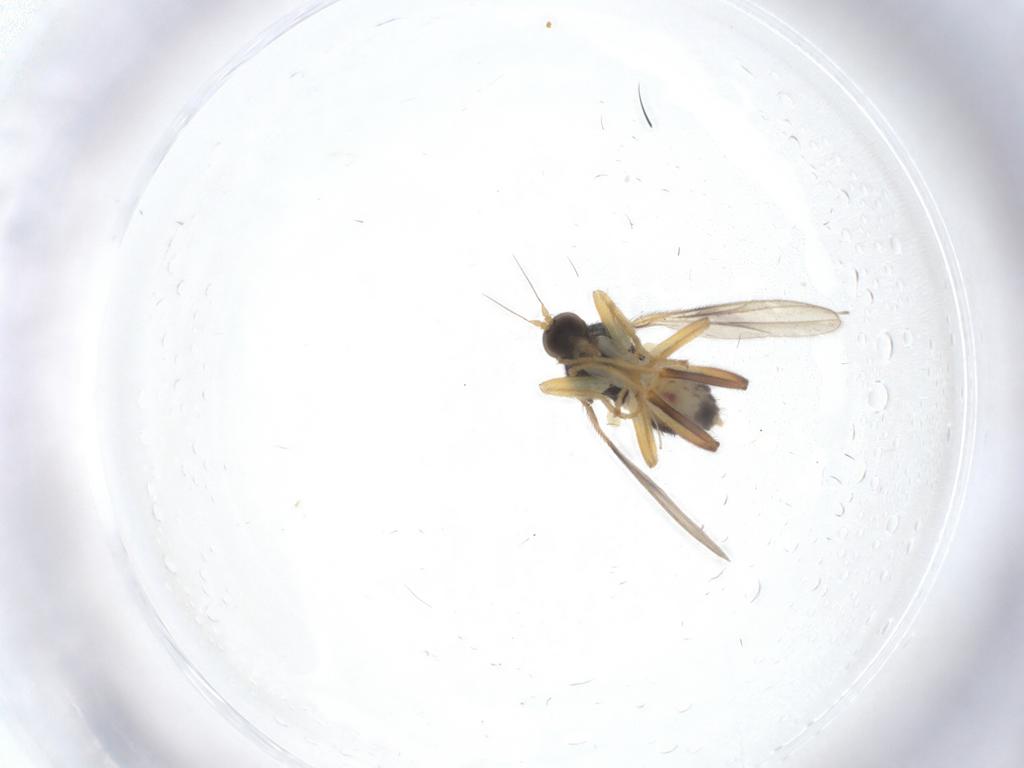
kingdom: Animalia
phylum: Arthropoda
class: Insecta
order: Diptera
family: Hybotidae
